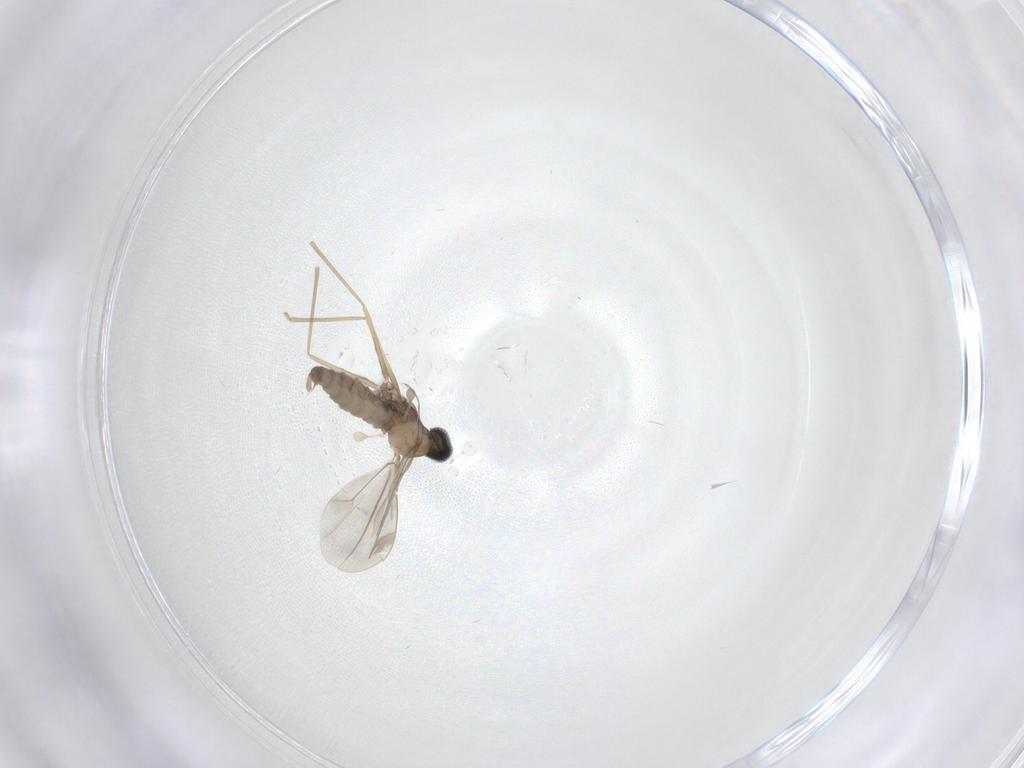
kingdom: Animalia
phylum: Arthropoda
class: Insecta
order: Diptera
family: Cecidomyiidae
